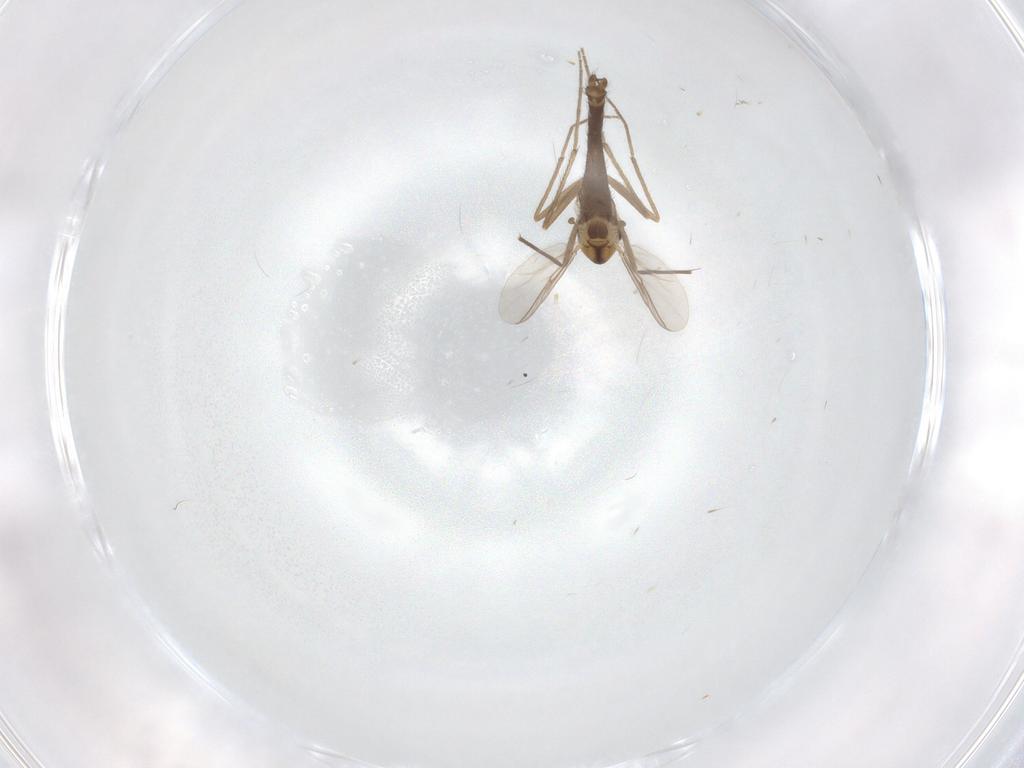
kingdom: Animalia
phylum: Arthropoda
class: Insecta
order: Diptera
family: Chironomidae
